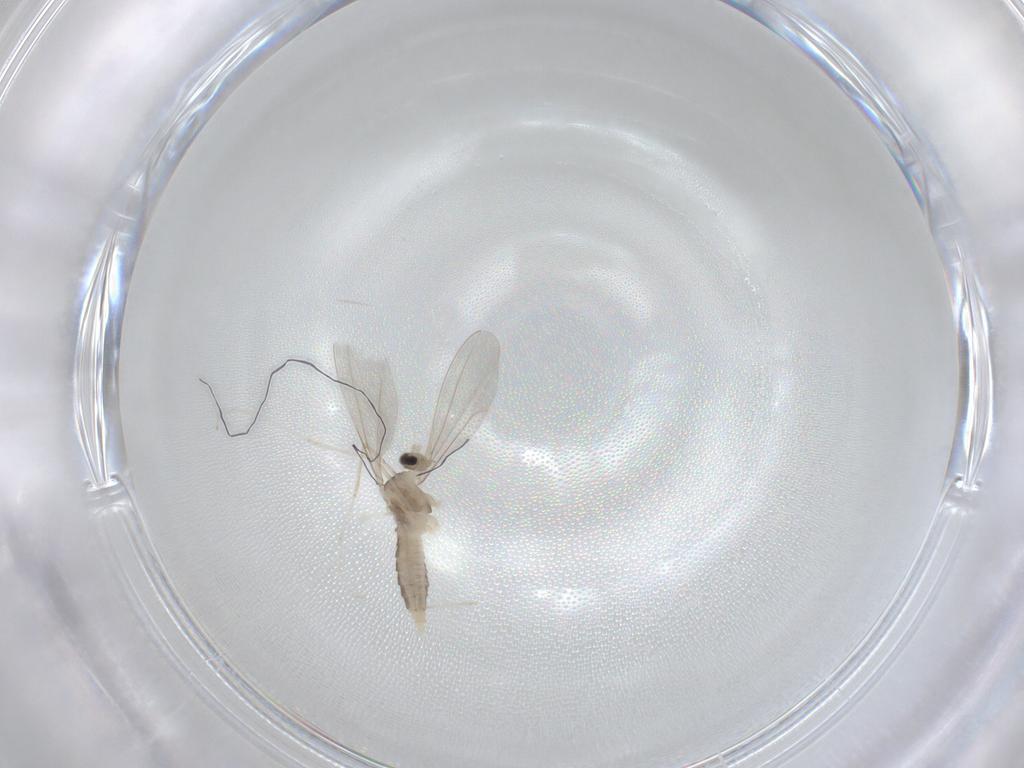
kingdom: Animalia
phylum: Arthropoda
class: Insecta
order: Diptera
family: Cecidomyiidae
